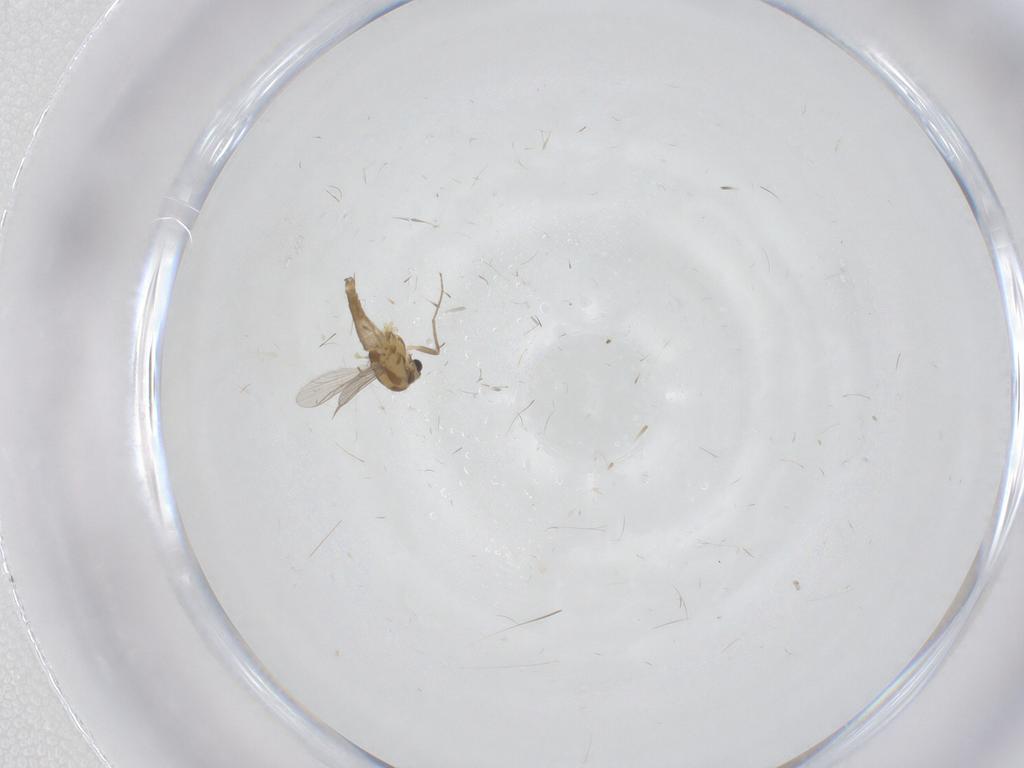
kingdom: Animalia
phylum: Arthropoda
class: Insecta
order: Diptera
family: Chironomidae
